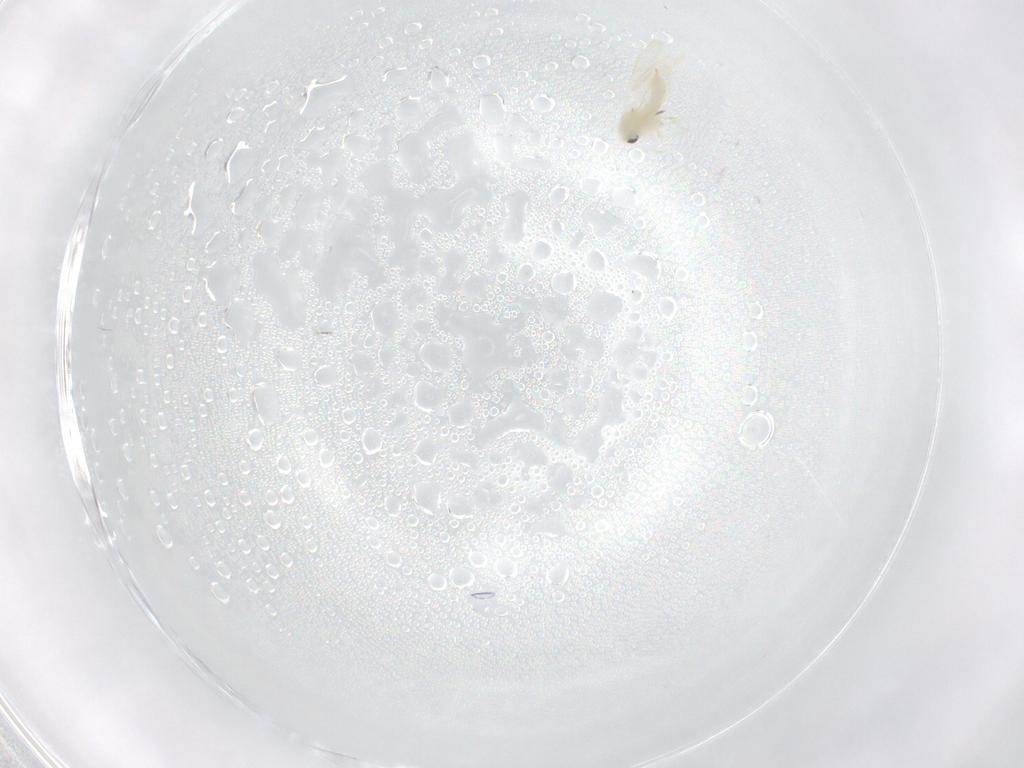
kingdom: Animalia
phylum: Arthropoda
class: Insecta
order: Hemiptera
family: Aleyrodidae
